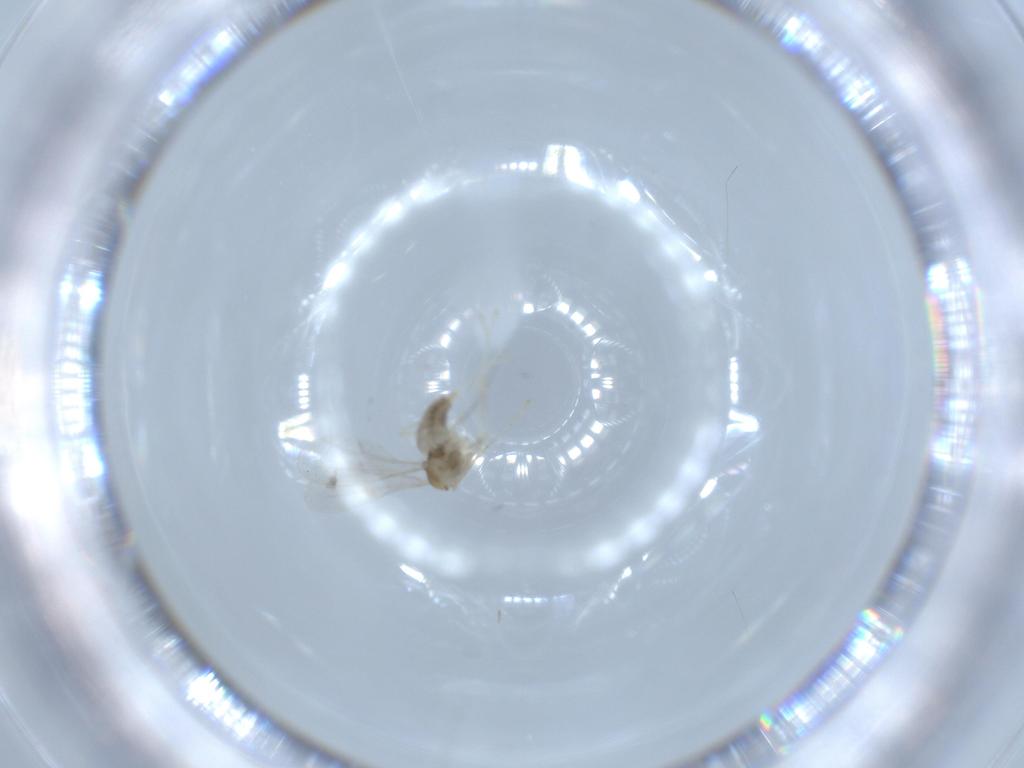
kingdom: Animalia
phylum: Arthropoda
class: Insecta
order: Diptera
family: Cecidomyiidae
